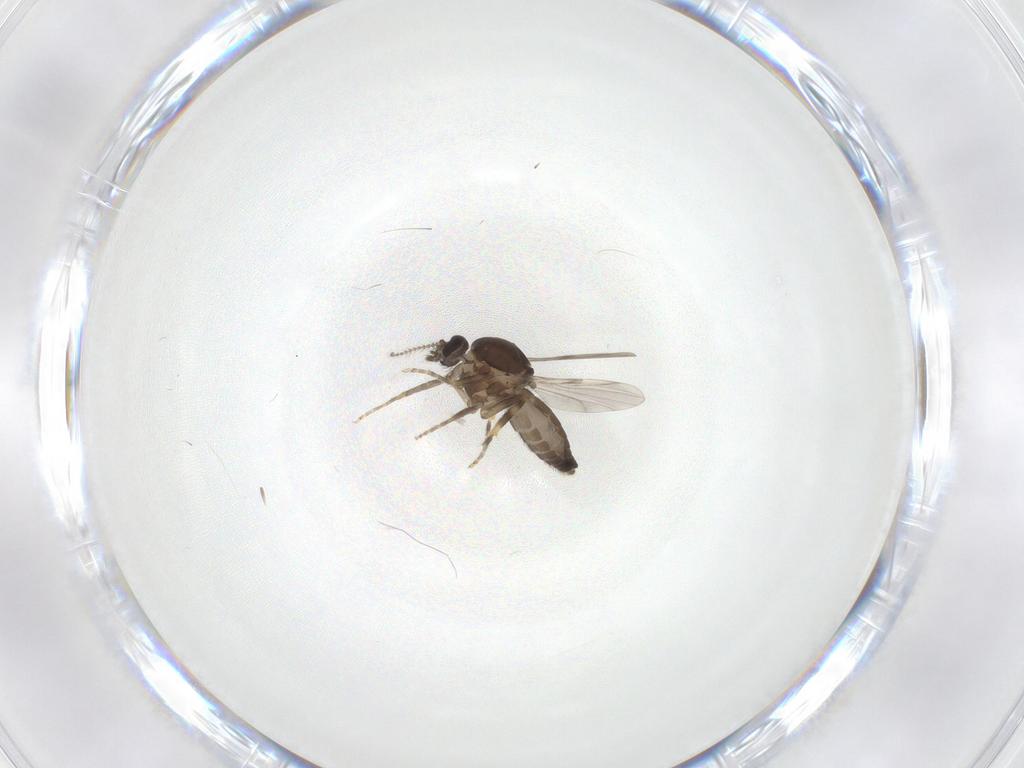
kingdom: Animalia
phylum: Arthropoda
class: Insecta
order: Diptera
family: Ceratopogonidae
